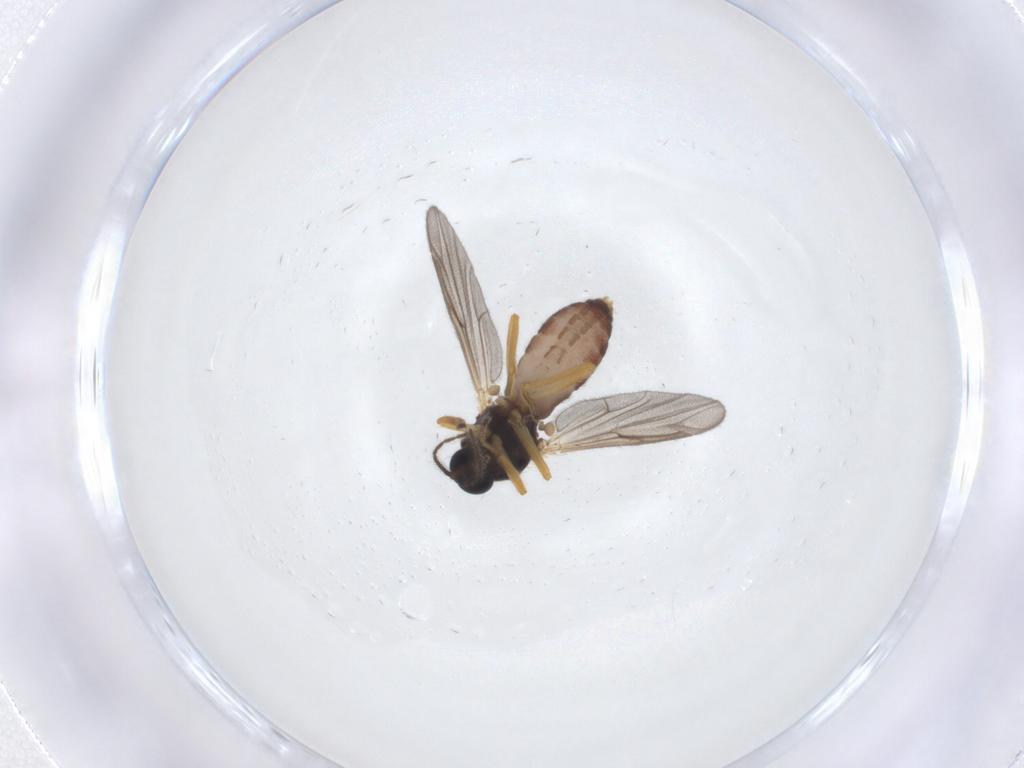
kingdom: Animalia
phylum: Arthropoda
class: Insecta
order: Diptera
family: Ceratopogonidae
